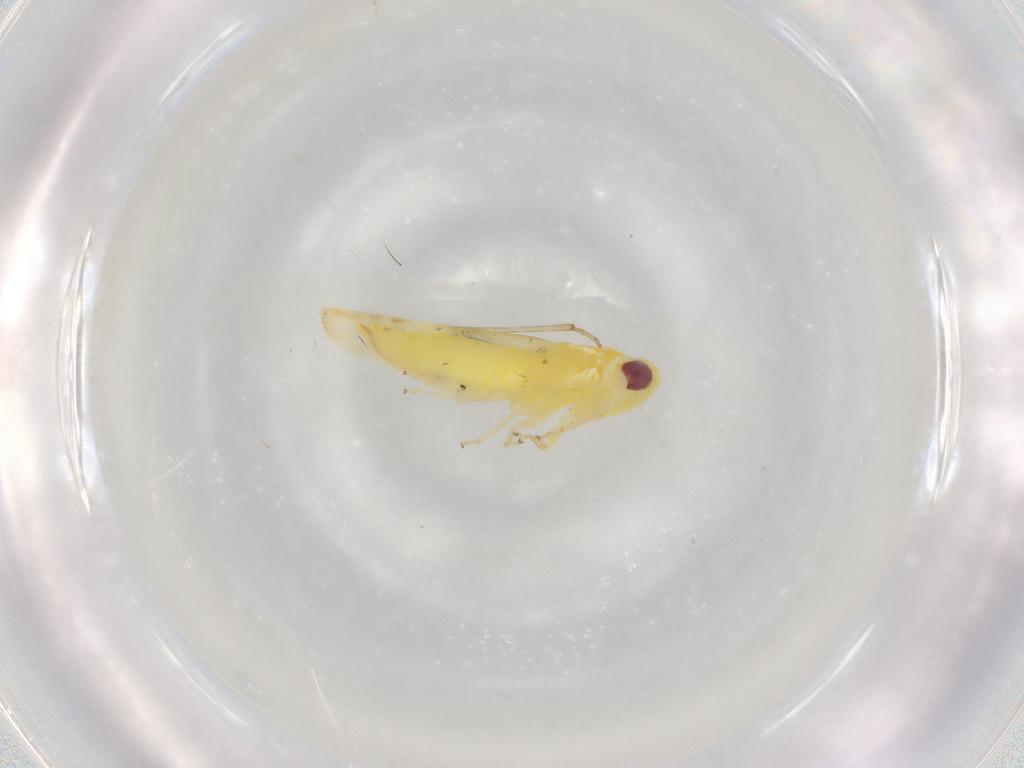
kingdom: Animalia
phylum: Arthropoda
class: Insecta
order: Hemiptera
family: Cicadellidae
